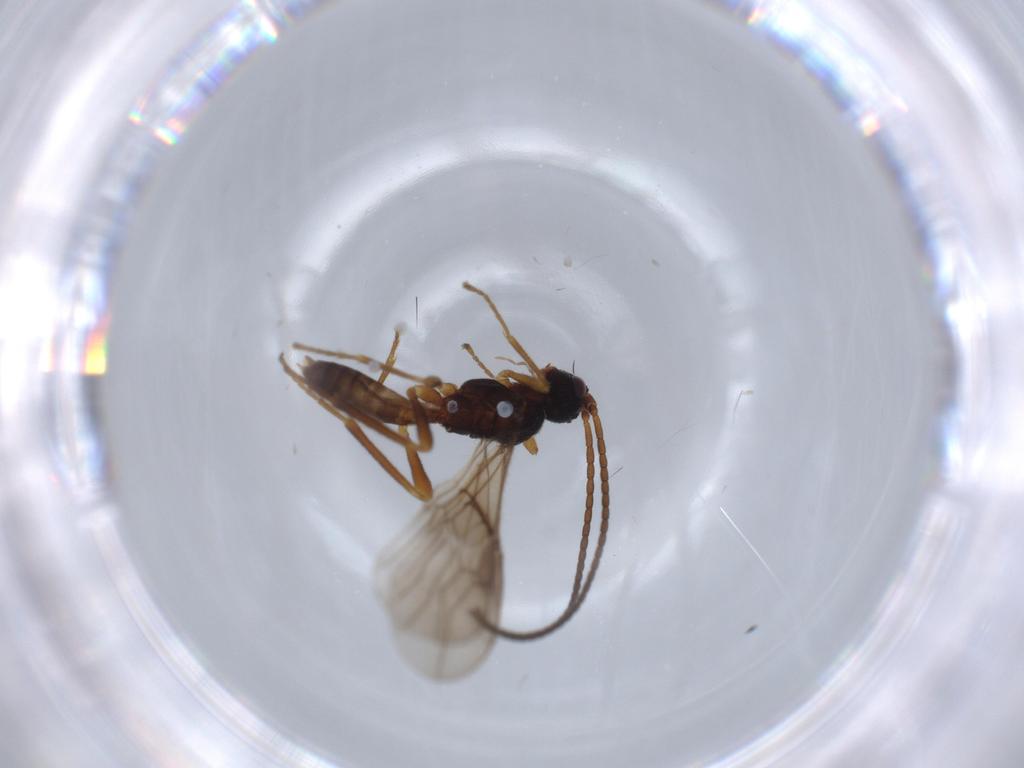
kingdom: Animalia
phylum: Arthropoda
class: Insecta
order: Hymenoptera
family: Braconidae
